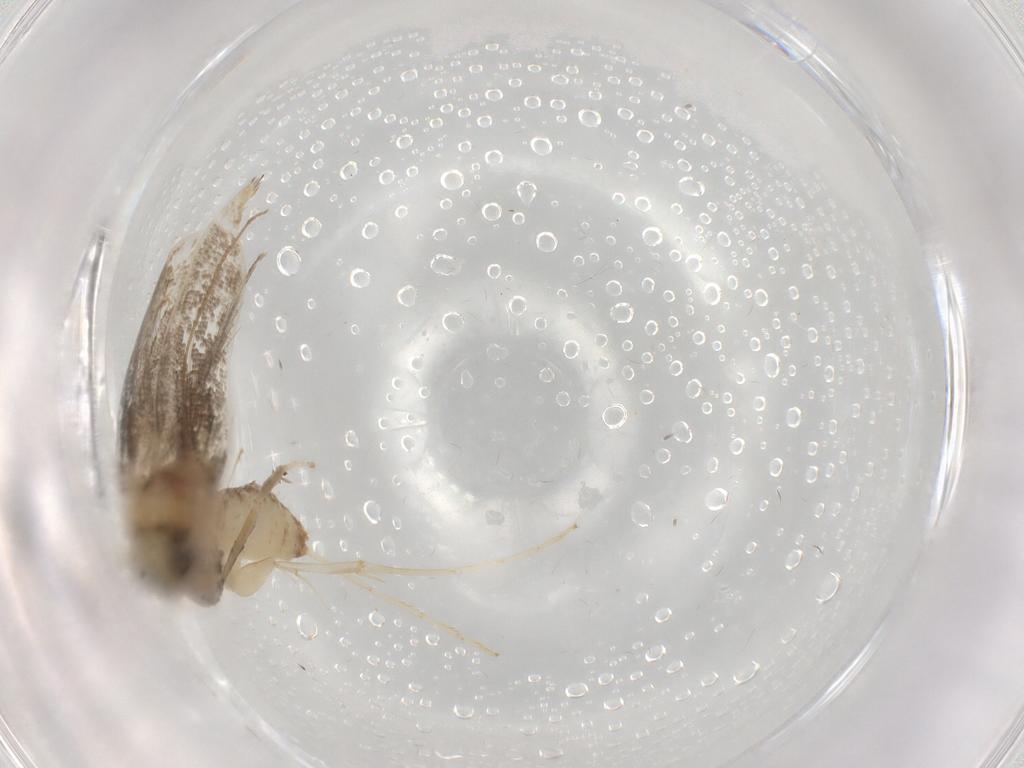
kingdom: Animalia
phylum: Arthropoda
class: Insecta
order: Lepidoptera
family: Gracillariidae
